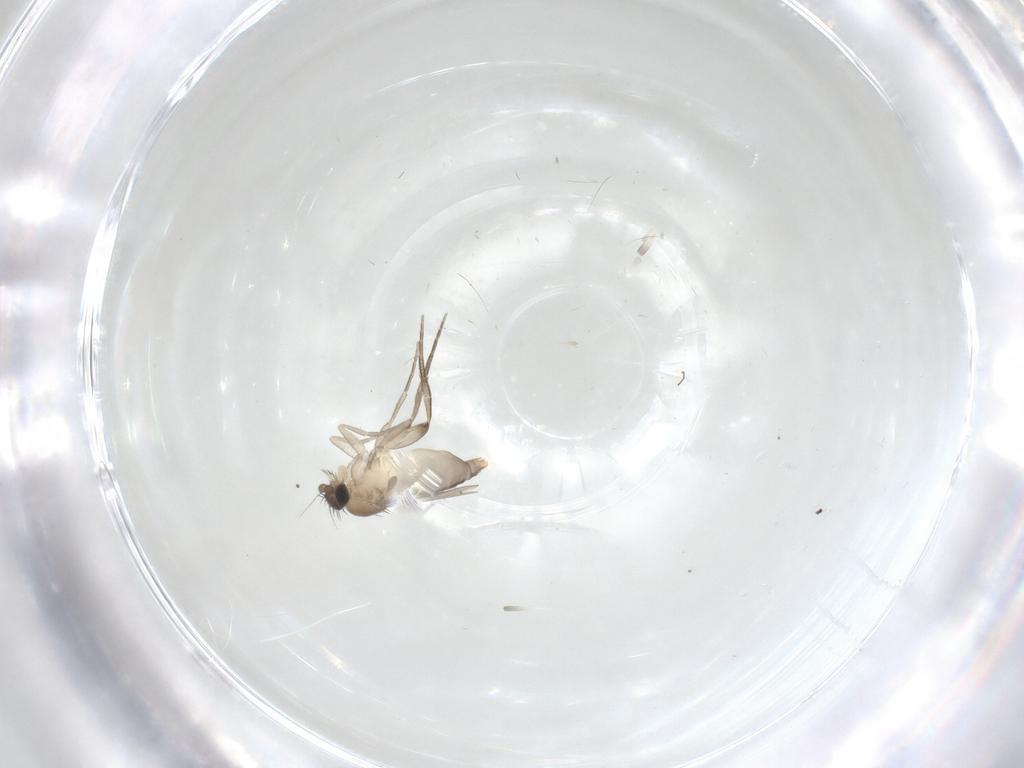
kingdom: Animalia
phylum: Arthropoda
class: Insecta
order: Diptera
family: Phoridae
